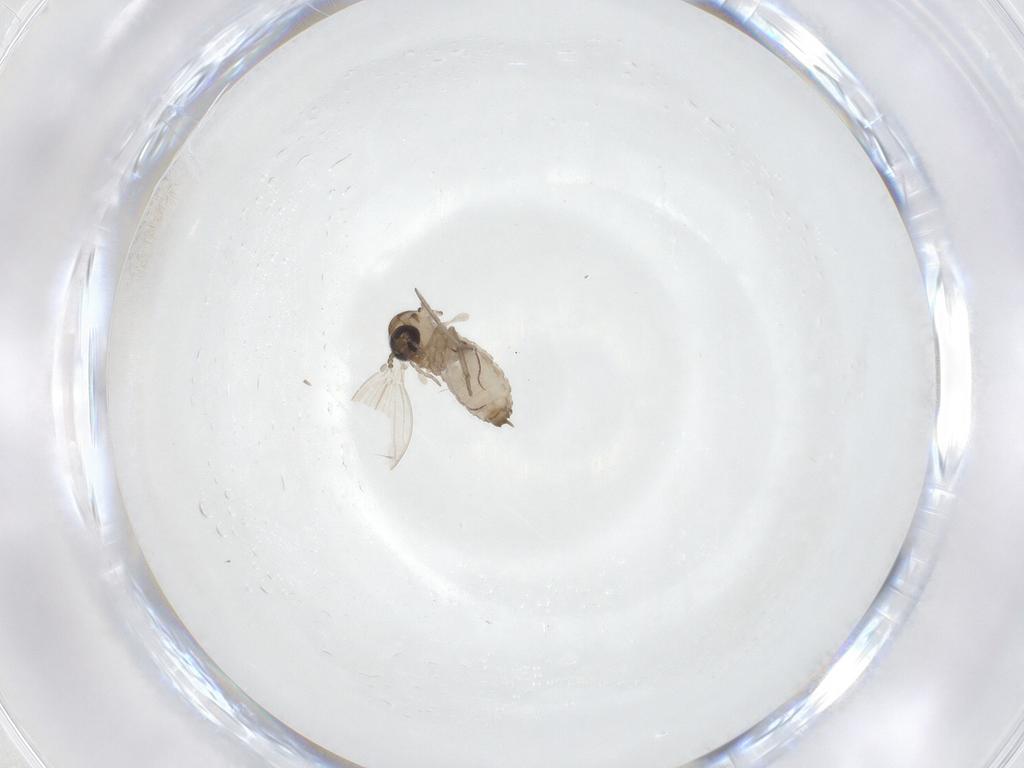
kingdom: Animalia
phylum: Arthropoda
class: Insecta
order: Diptera
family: Psychodidae
